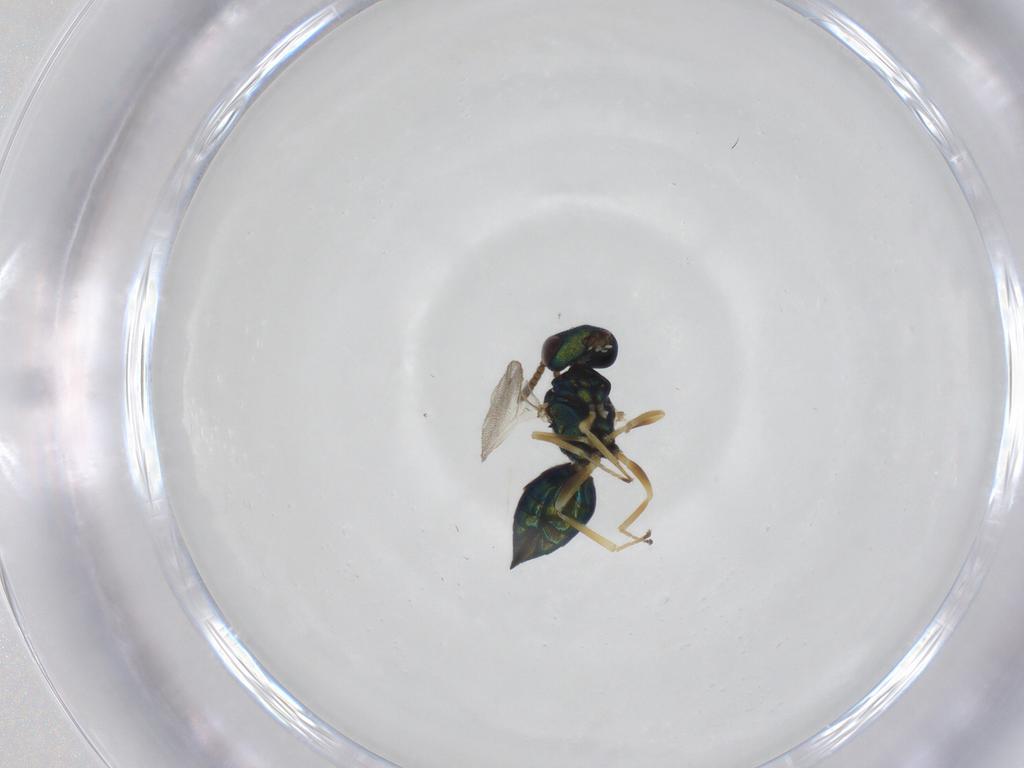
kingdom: Animalia
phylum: Arthropoda
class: Insecta
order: Hymenoptera
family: Pteromalidae
